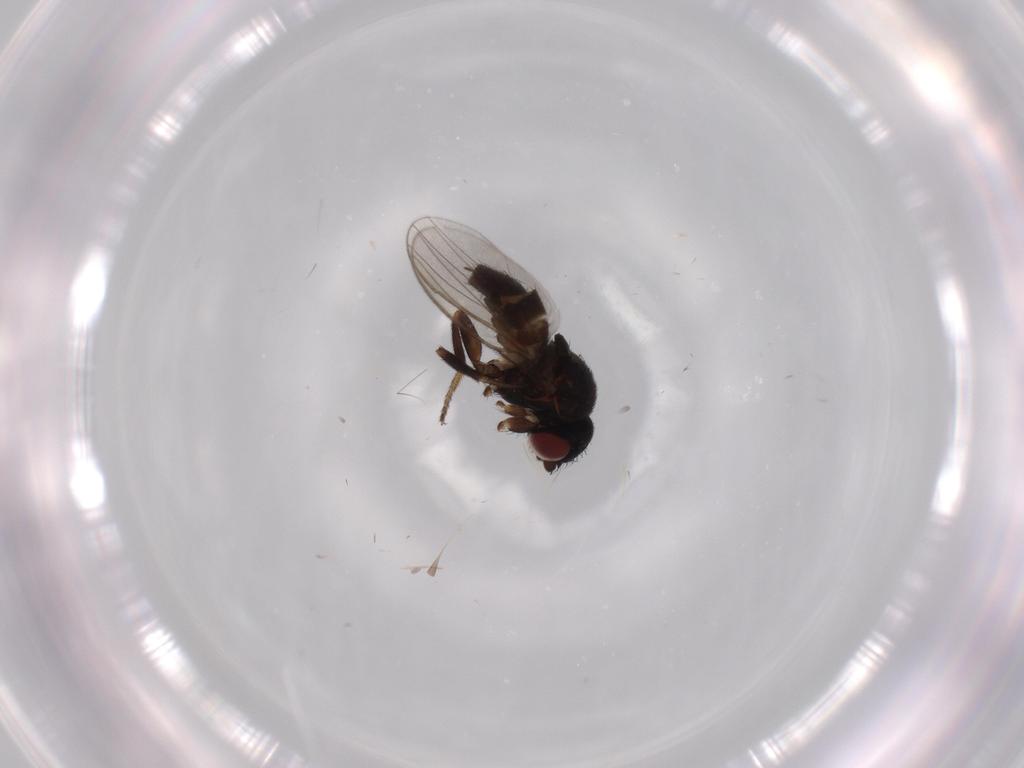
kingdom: Animalia
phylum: Arthropoda
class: Insecta
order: Diptera
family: Milichiidae
